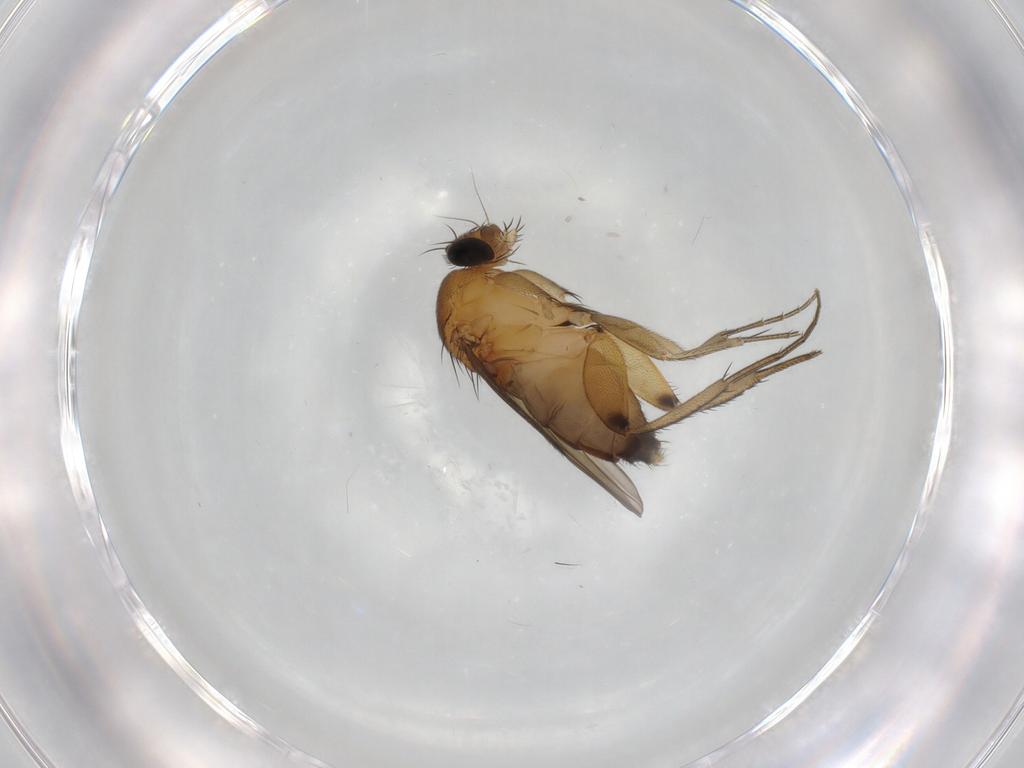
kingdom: Animalia
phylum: Arthropoda
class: Insecta
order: Diptera
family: Phoridae
